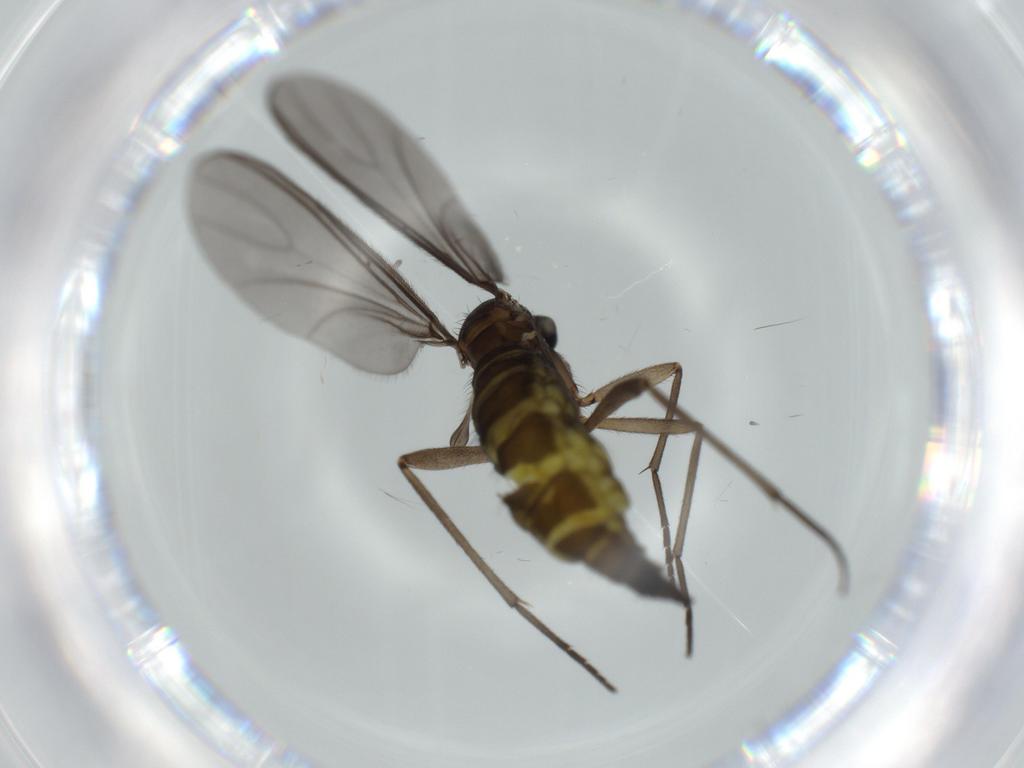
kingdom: Animalia
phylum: Arthropoda
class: Insecta
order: Diptera
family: Sciaridae
